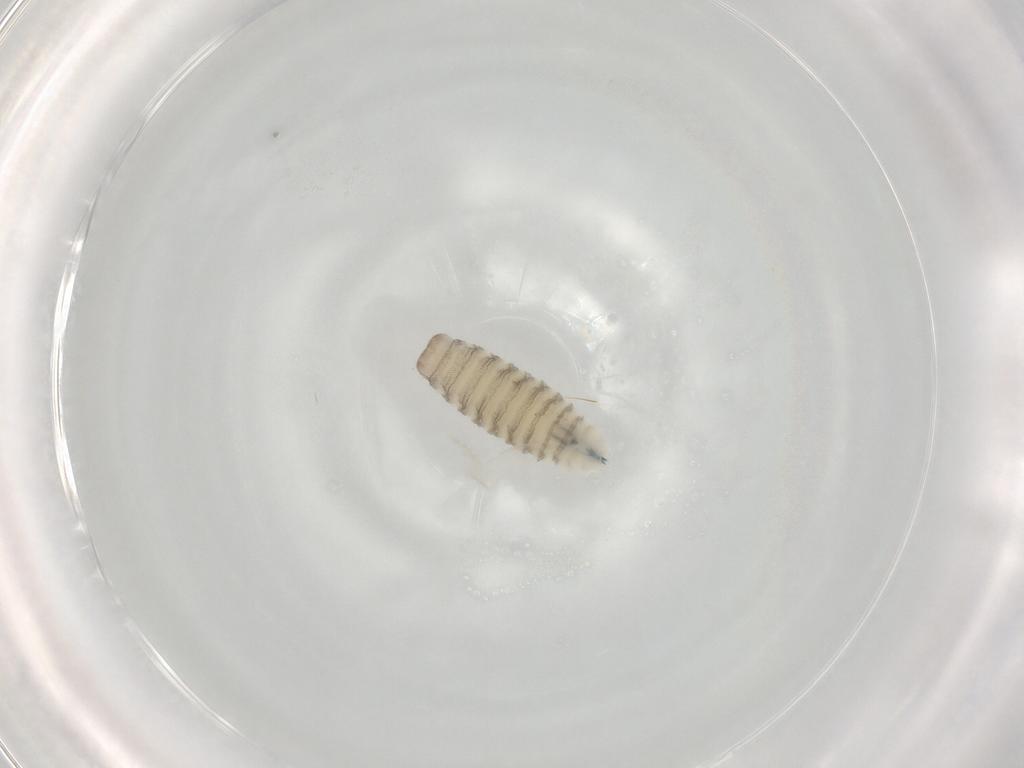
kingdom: Animalia
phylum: Arthropoda
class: Insecta
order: Diptera
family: Sarcophagidae
